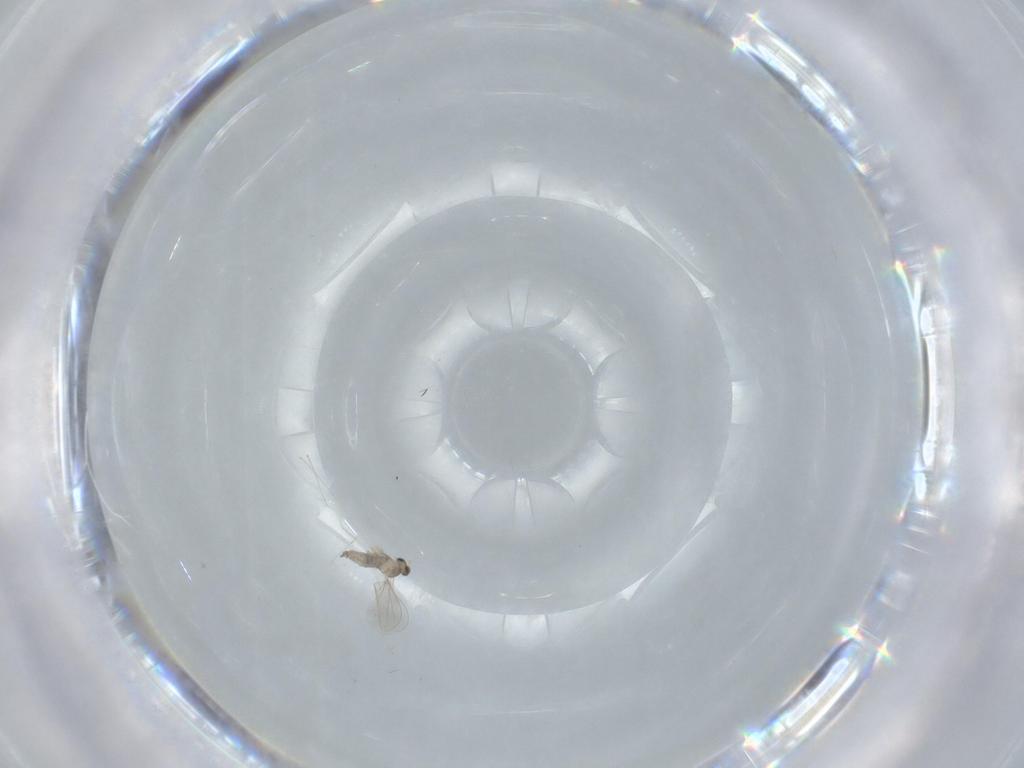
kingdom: Animalia
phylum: Arthropoda
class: Insecta
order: Diptera
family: Cecidomyiidae
